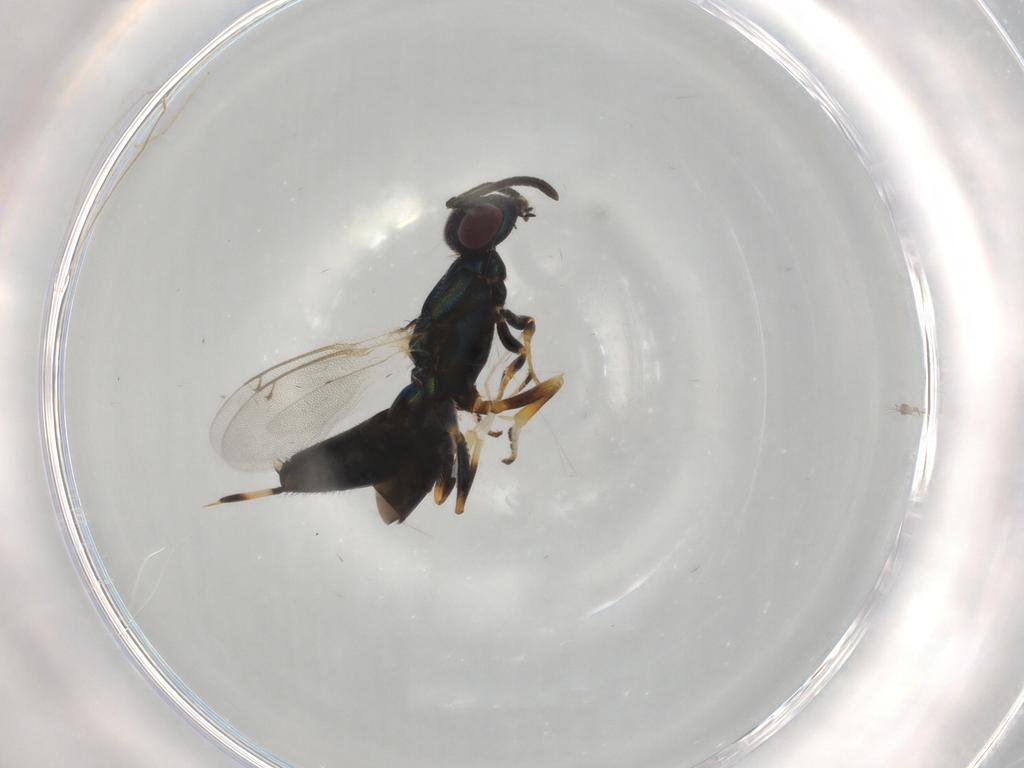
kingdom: Animalia
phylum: Arthropoda
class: Insecta
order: Hymenoptera
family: Eupelmidae
